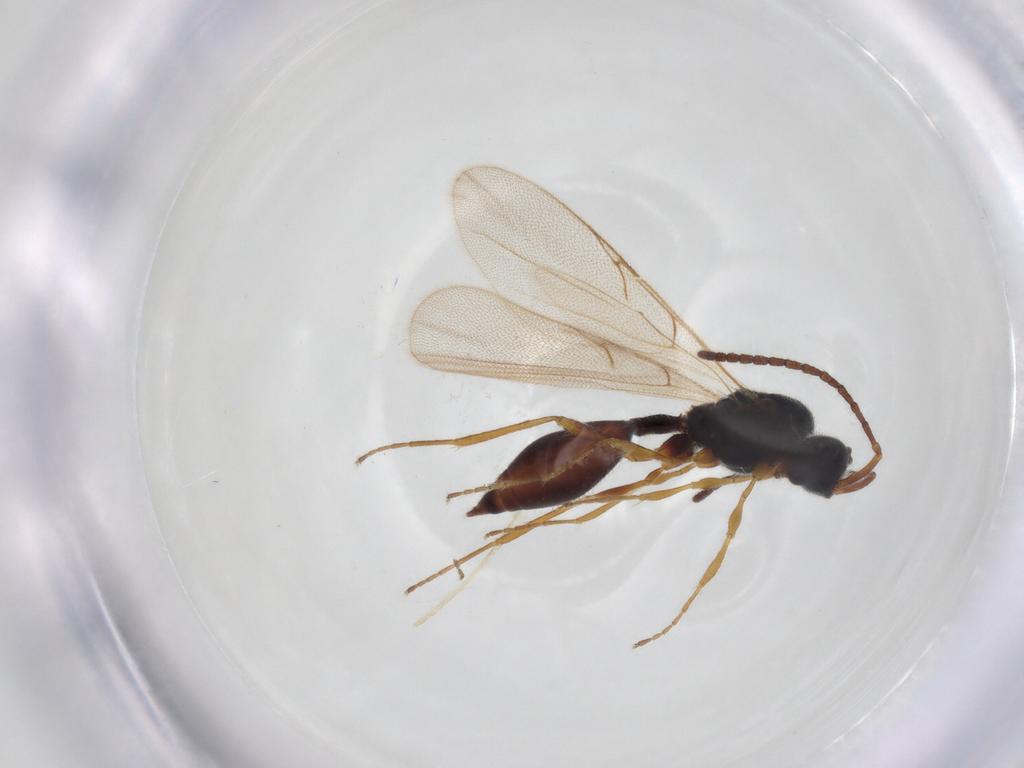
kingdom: Animalia
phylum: Arthropoda
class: Insecta
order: Hymenoptera
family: Diapriidae
